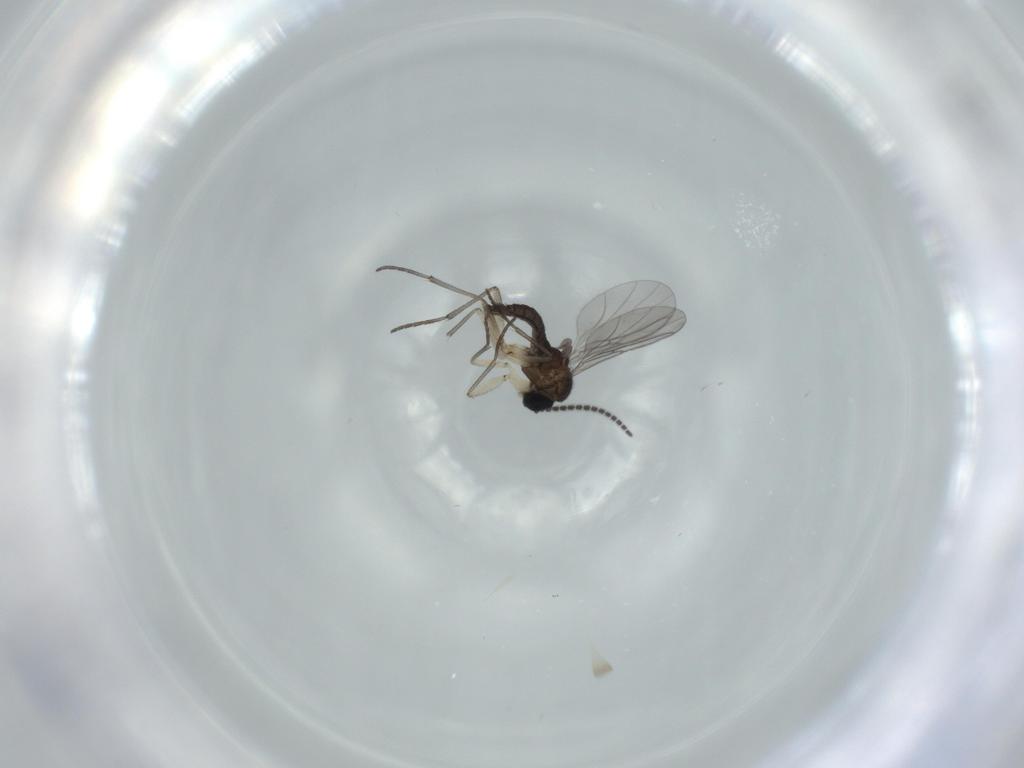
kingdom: Animalia
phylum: Arthropoda
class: Insecta
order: Diptera
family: Sciaridae
